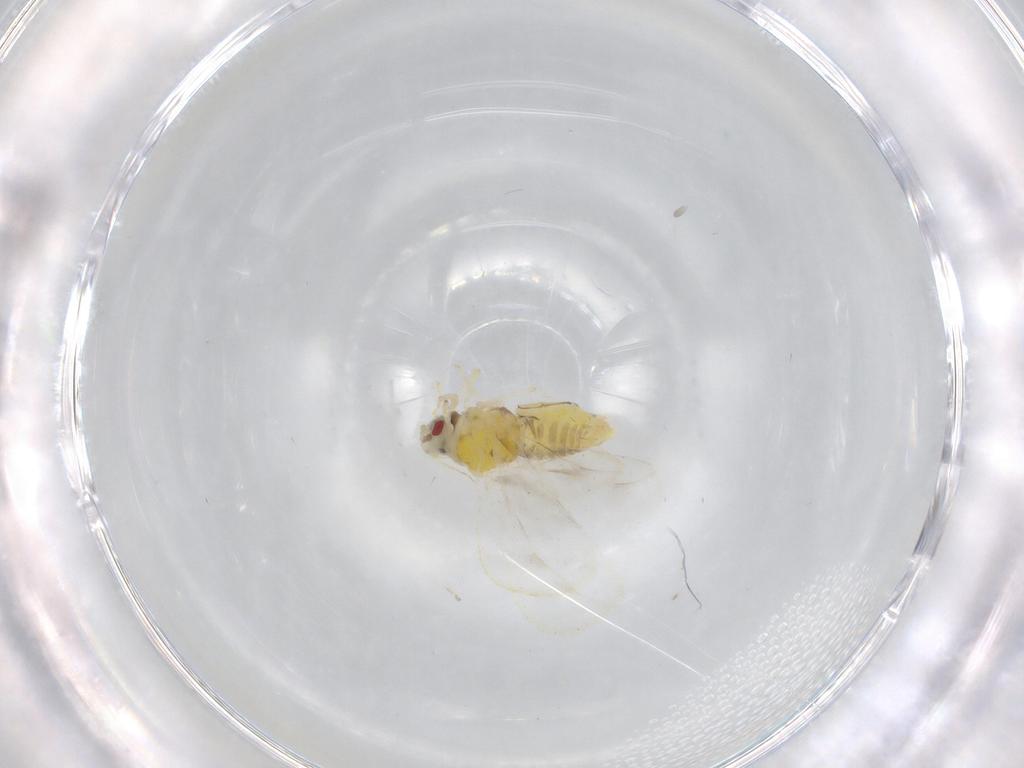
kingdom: Animalia
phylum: Arthropoda
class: Insecta
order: Hemiptera
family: Aleyrodidae
